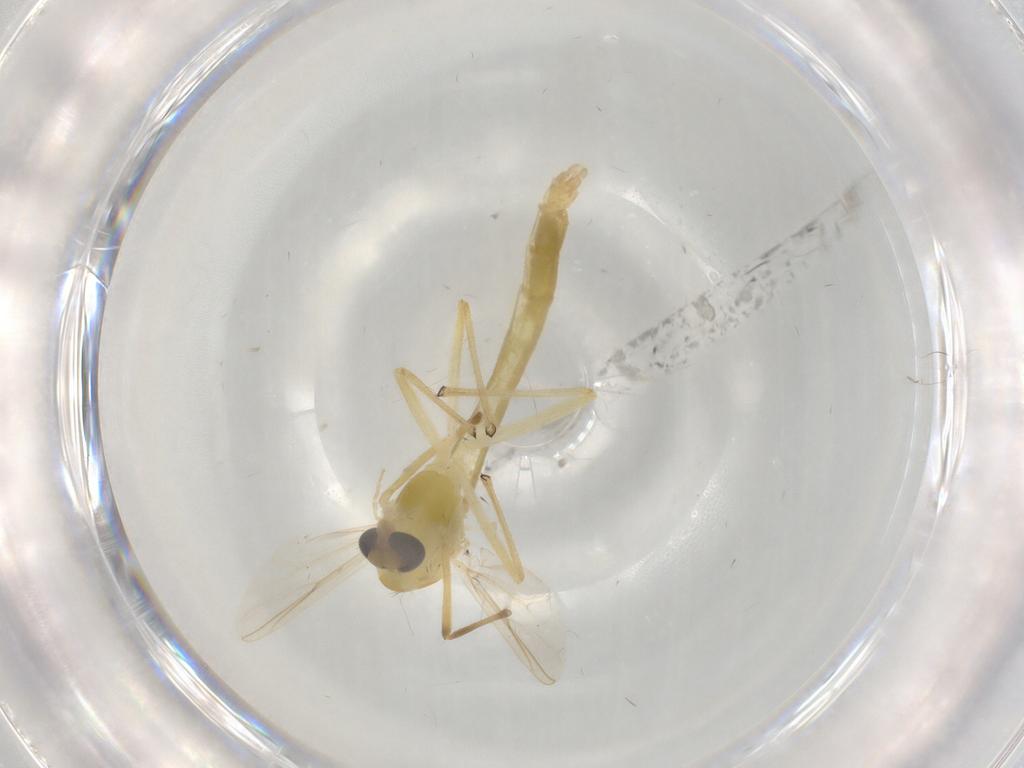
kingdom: Animalia
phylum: Arthropoda
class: Insecta
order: Diptera
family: Chironomidae
